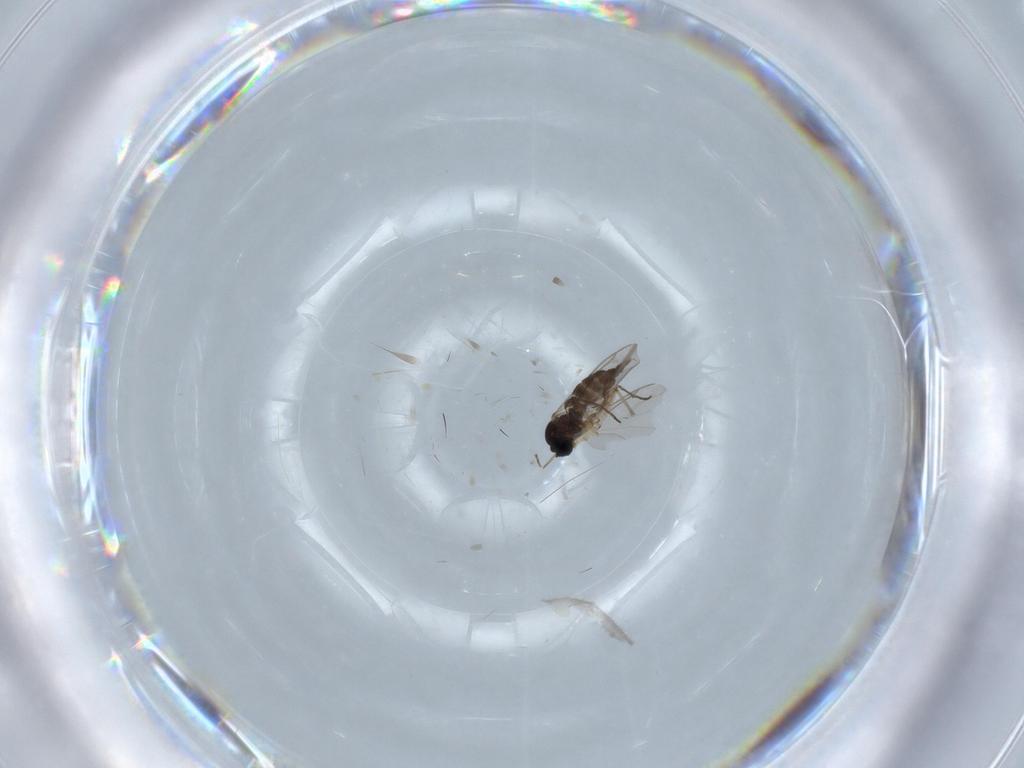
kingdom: Animalia
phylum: Arthropoda
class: Insecta
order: Diptera
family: Sciaridae
